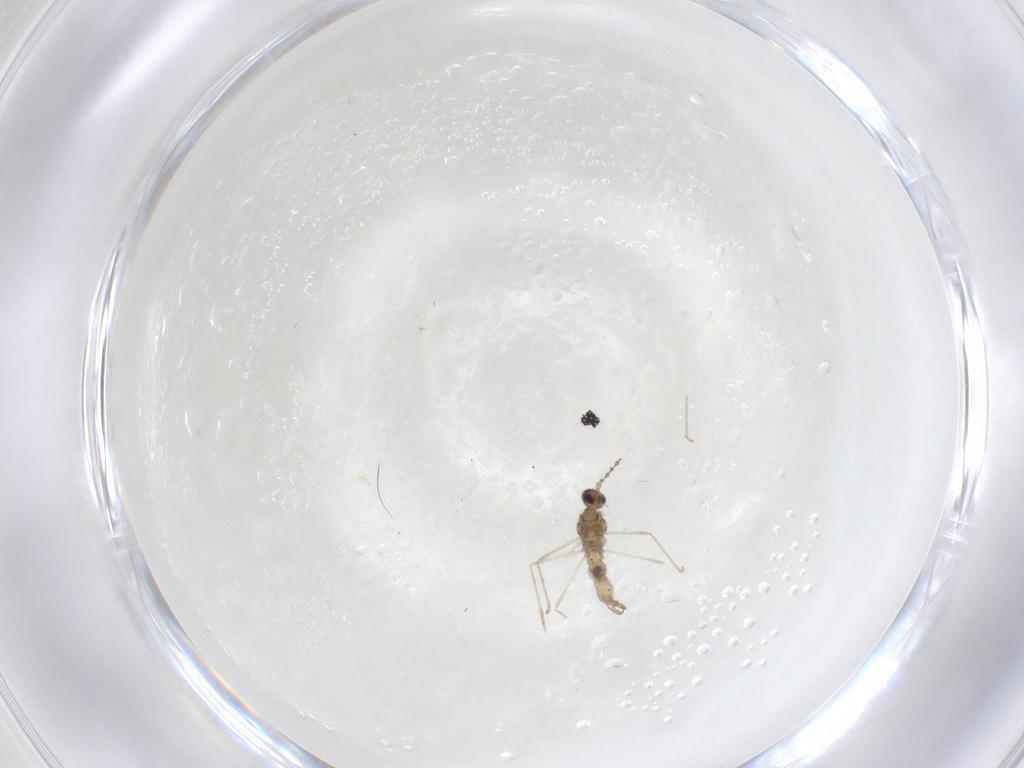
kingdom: Animalia
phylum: Arthropoda
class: Insecta
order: Diptera
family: Cecidomyiidae
